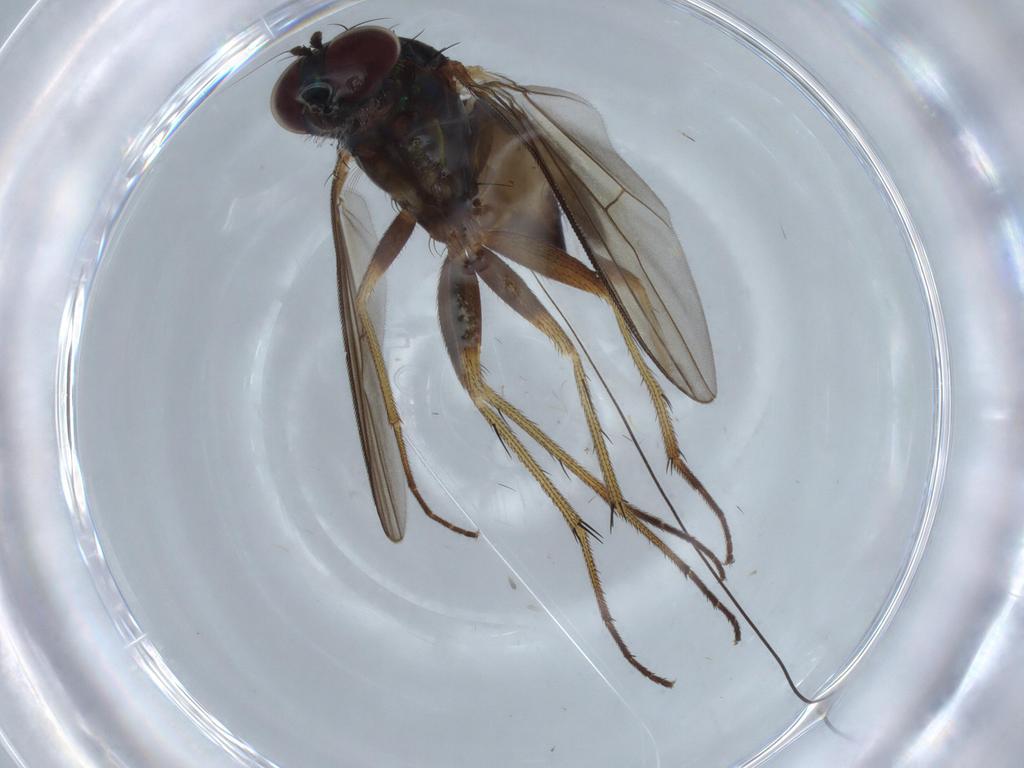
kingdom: Animalia
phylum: Arthropoda
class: Insecta
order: Diptera
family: Dolichopodidae
